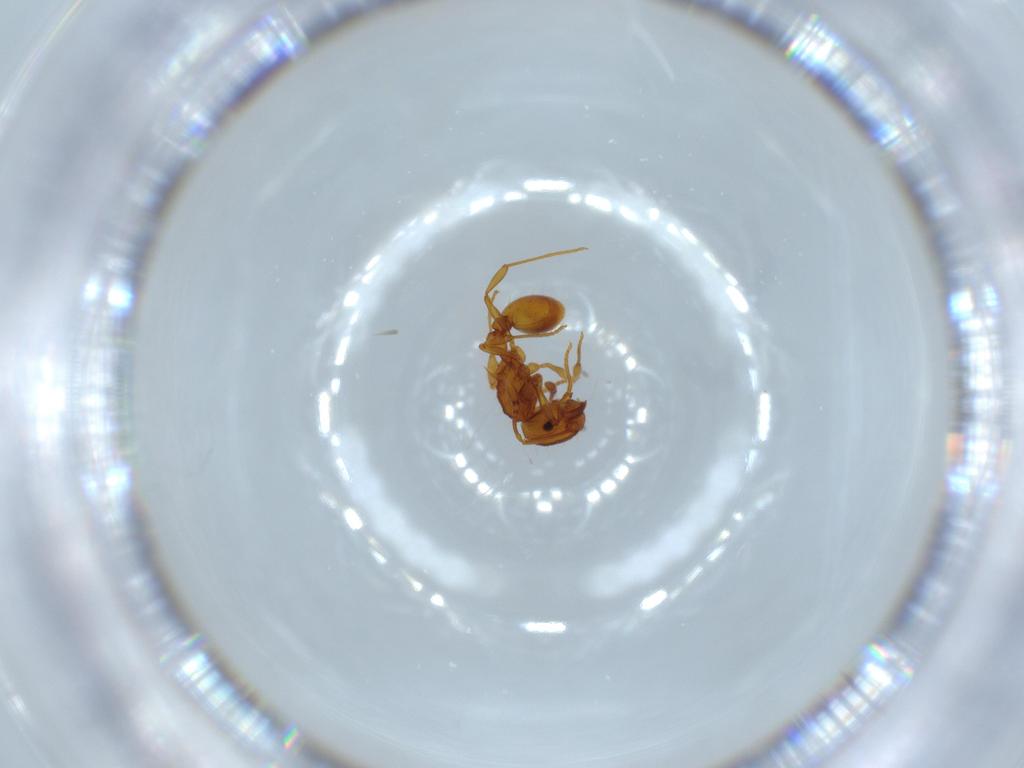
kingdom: Animalia
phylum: Arthropoda
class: Insecta
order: Hymenoptera
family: Formicidae
